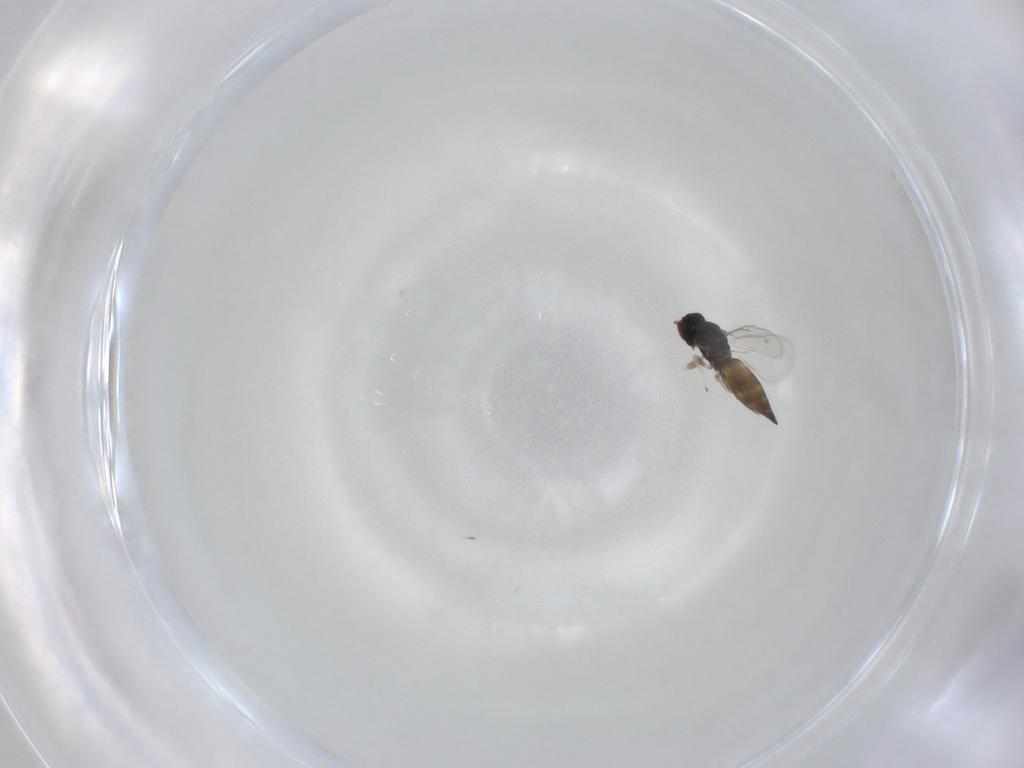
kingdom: Animalia
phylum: Arthropoda
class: Insecta
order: Hymenoptera
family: Eulophidae
